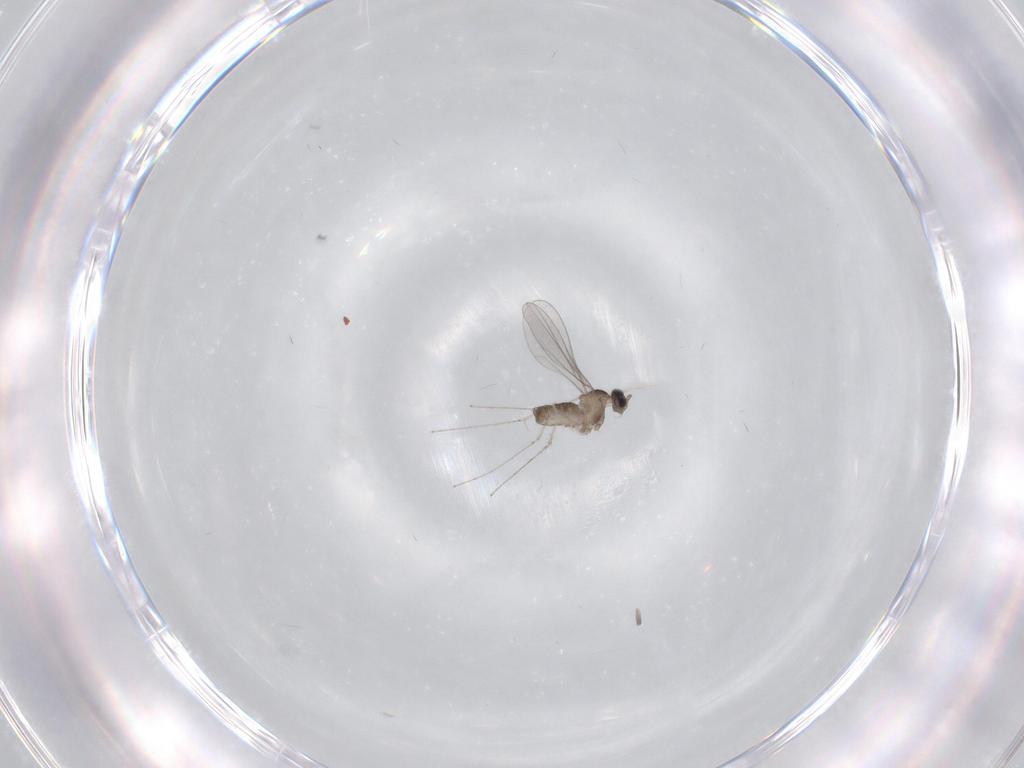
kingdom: Animalia
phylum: Arthropoda
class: Insecta
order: Diptera
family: Cecidomyiidae
